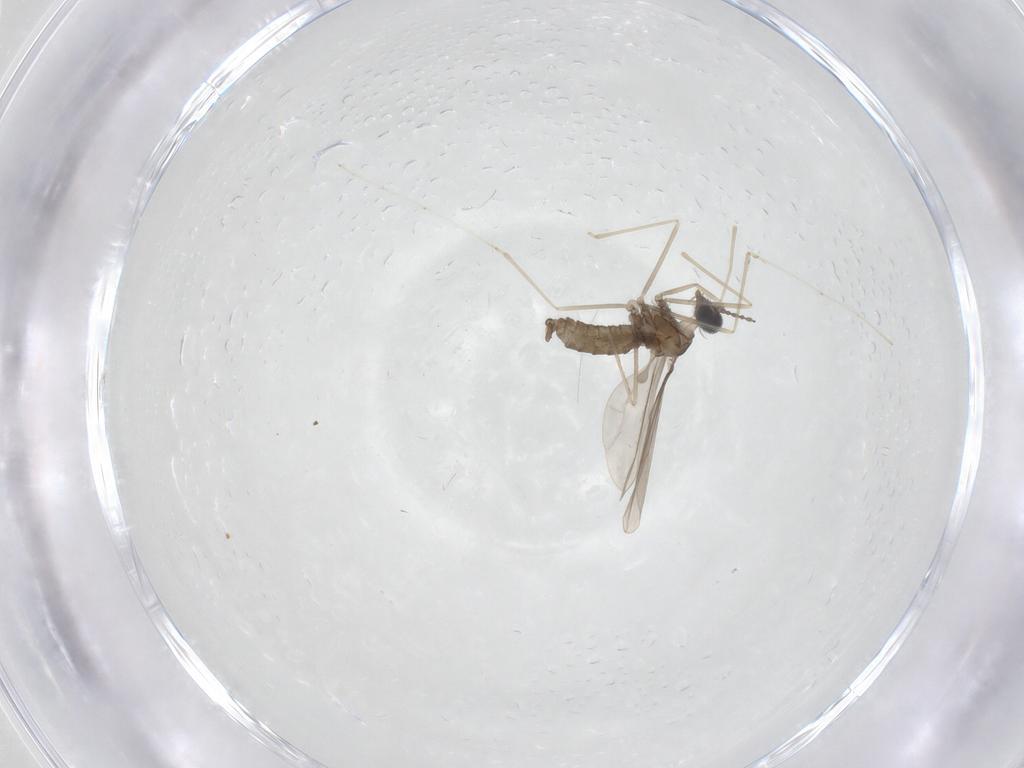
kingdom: Animalia
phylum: Arthropoda
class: Insecta
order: Diptera
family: Cecidomyiidae
